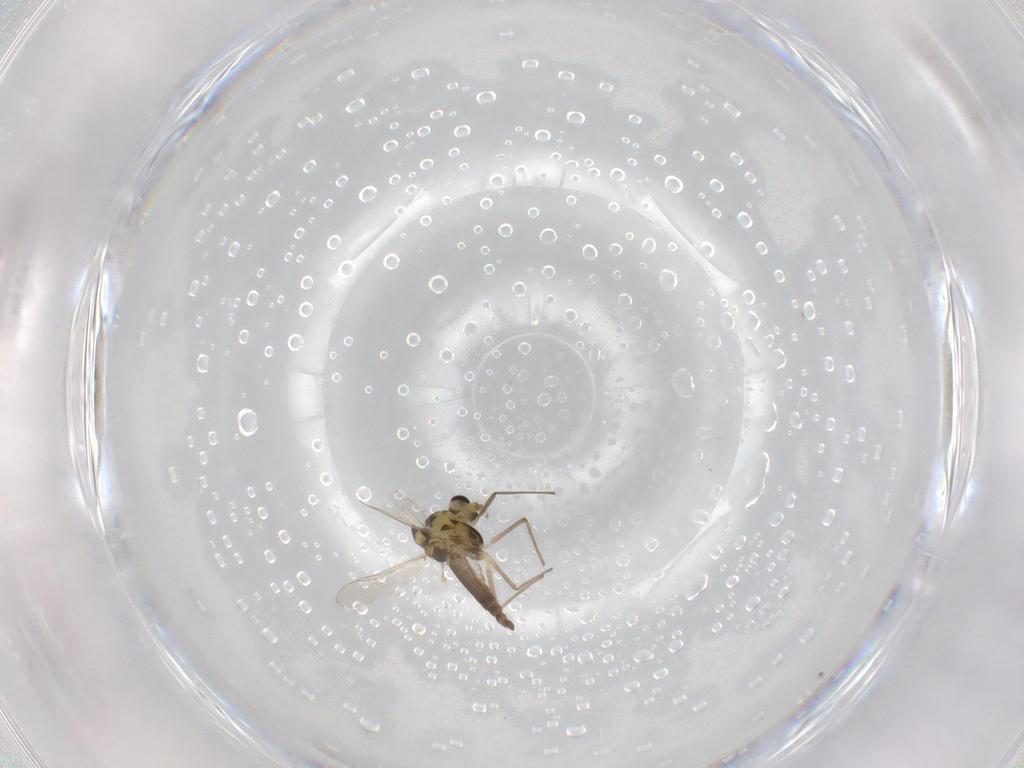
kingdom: Animalia
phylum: Arthropoda
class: Insecta
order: Diptera
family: Chironomidae
